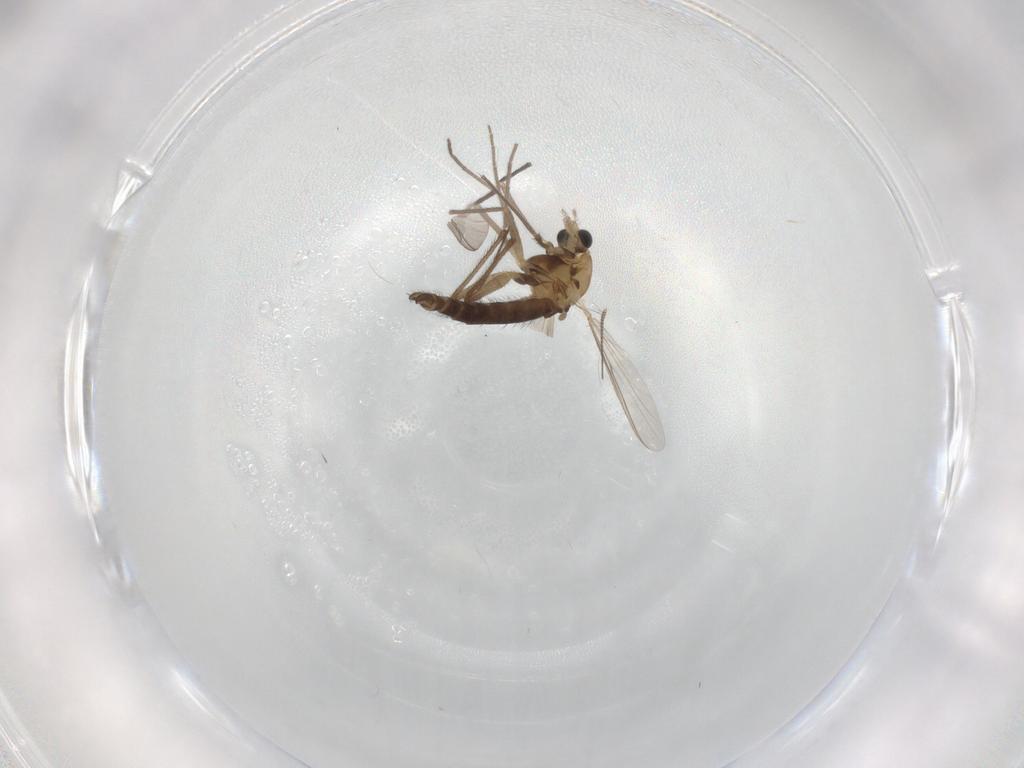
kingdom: Animalia
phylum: Arthropoda
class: Insecta
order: Diptera
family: Chironomidae
